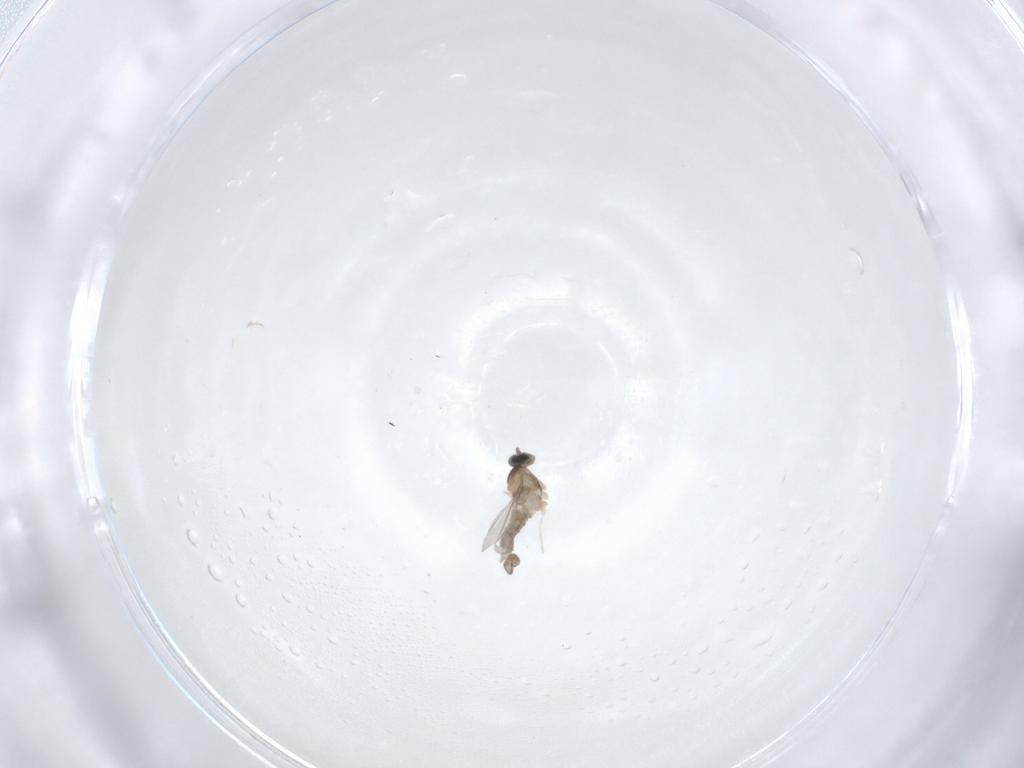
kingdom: Animalia
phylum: Arthropoda
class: Insecta
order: Diptera
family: Cecidomyiidae
